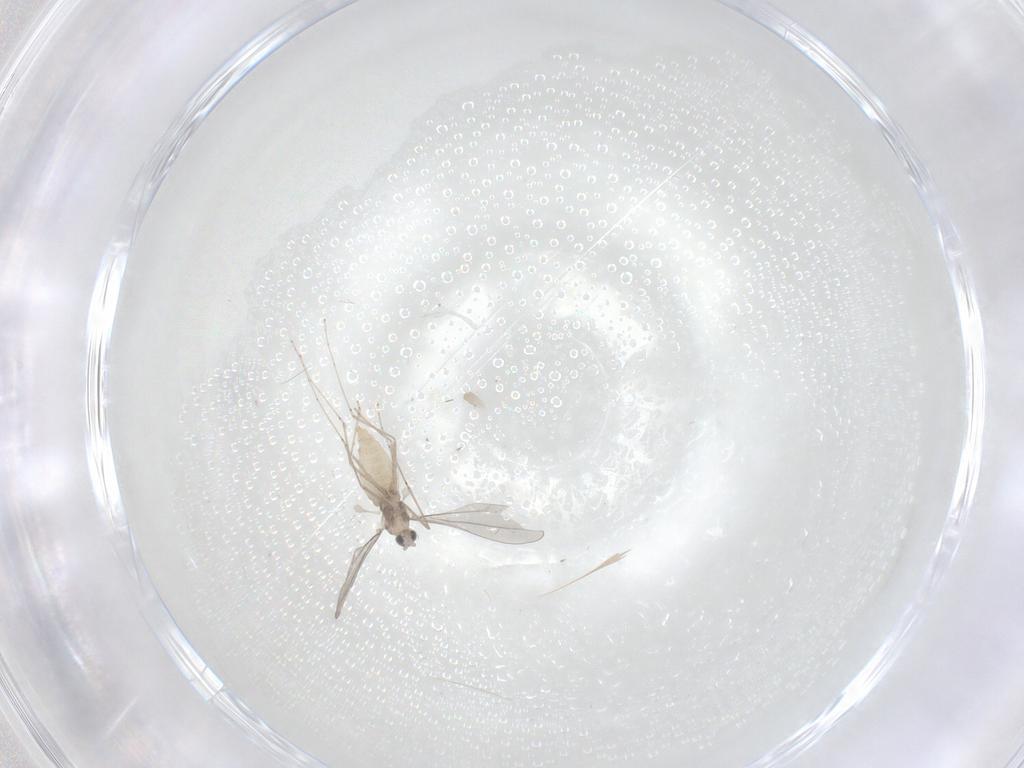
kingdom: Animalia
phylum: Arthropoda
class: Insecta
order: Diptera
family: Cecidomyiidae
